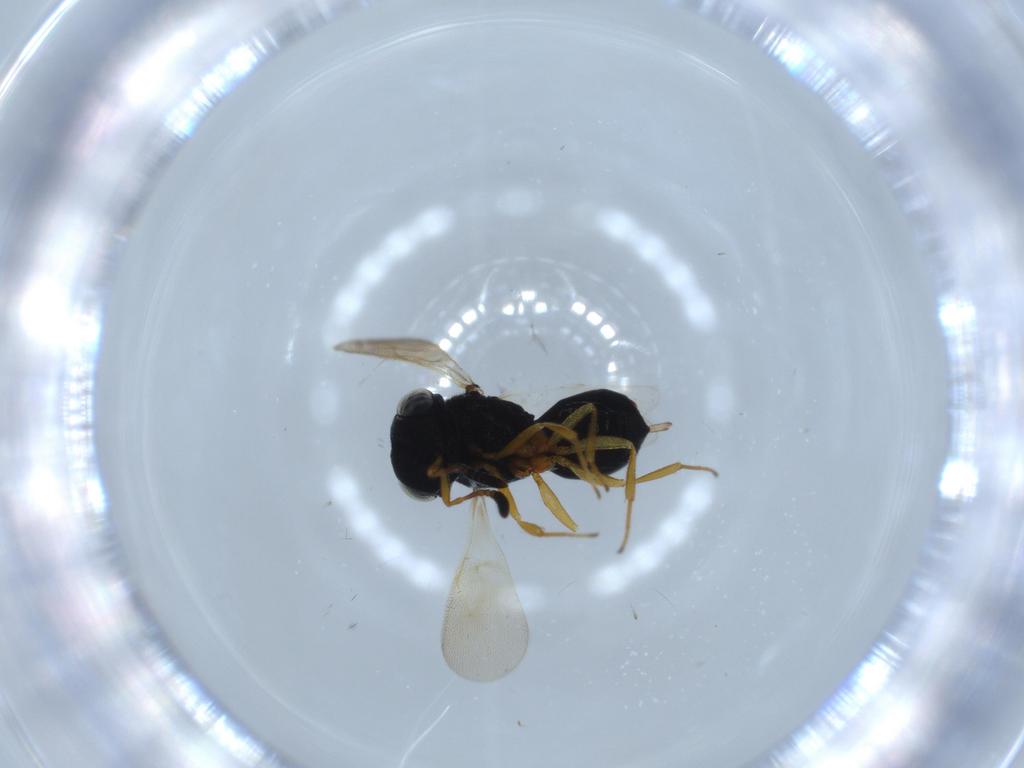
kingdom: Animalia
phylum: Arthropoda
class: Insecta
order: Hymenoptera
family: Scelionidae
